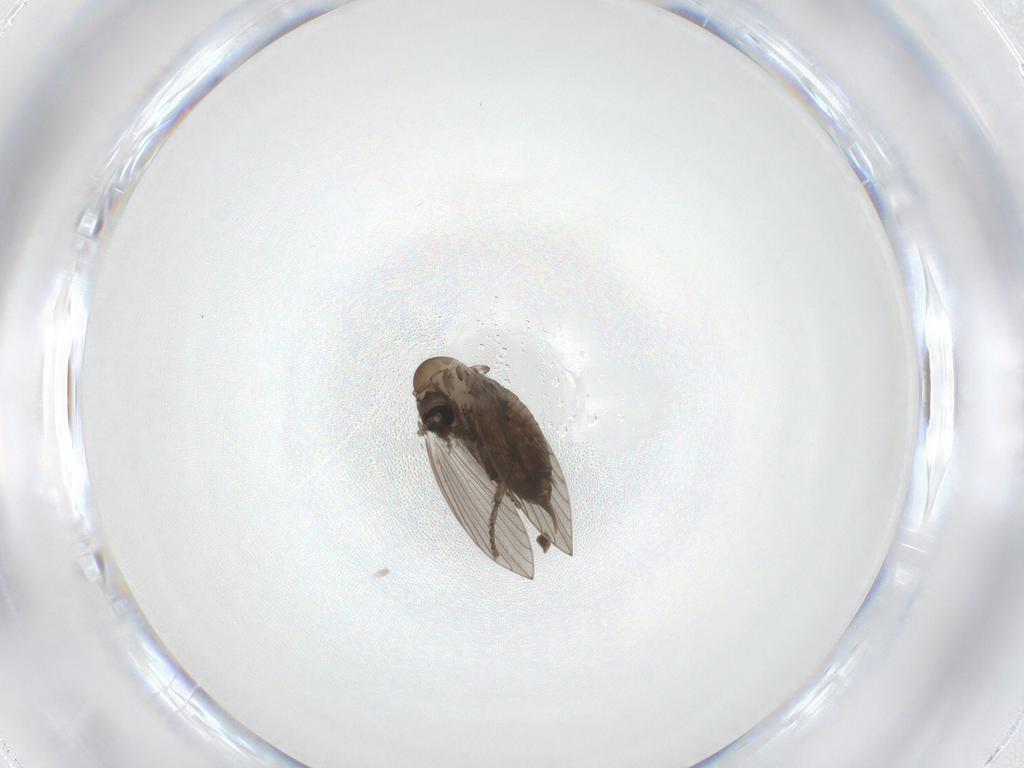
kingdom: Animalia
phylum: Arthropoda
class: Insecta
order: Diptera
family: Psychodidae
